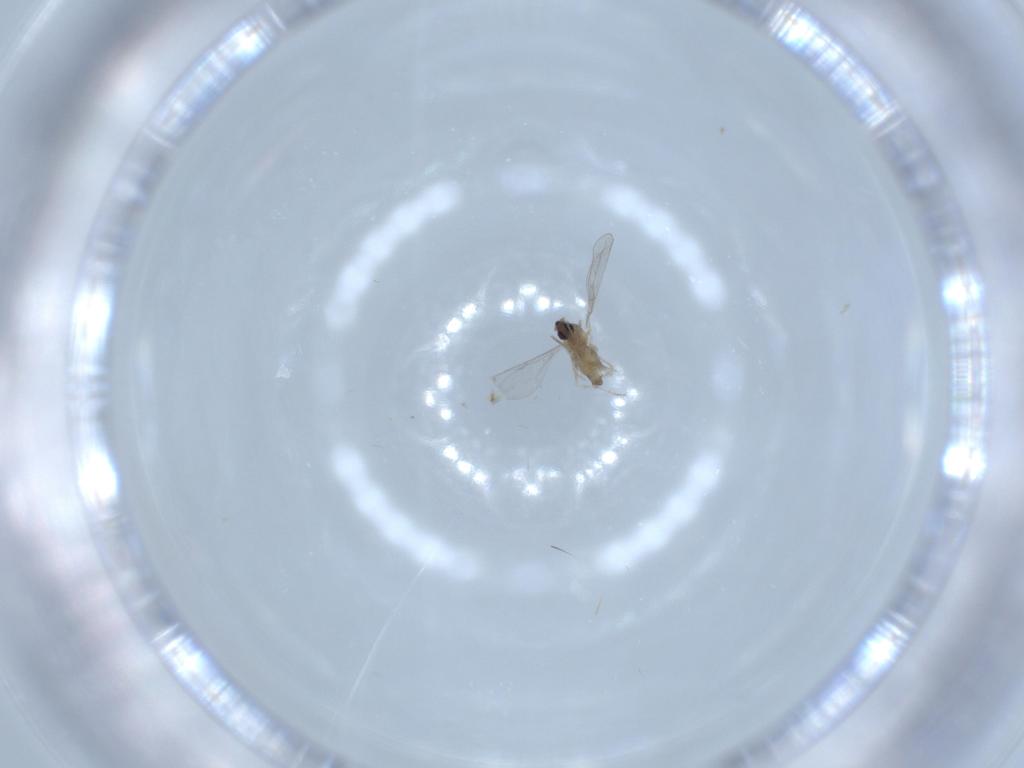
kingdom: Animalia
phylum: Arthropoda
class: Insecta
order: Diptera
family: Cecidomyiidae
